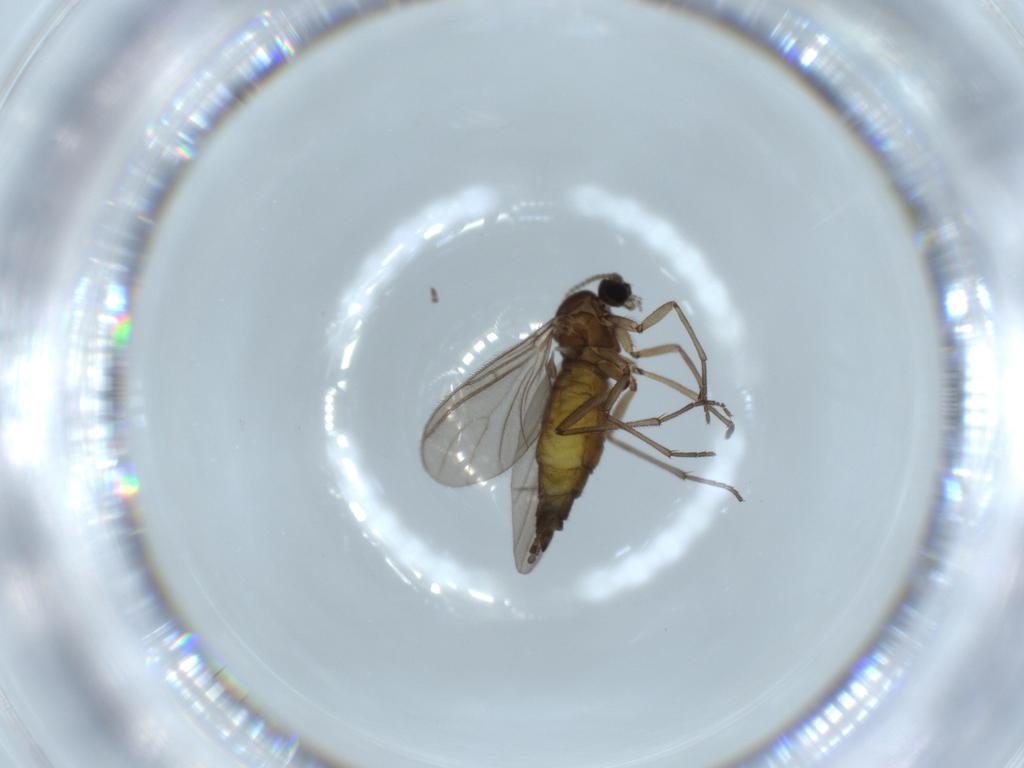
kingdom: Animalia
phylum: Arthropoda
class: Insecta
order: Diptera
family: Sciaridae
